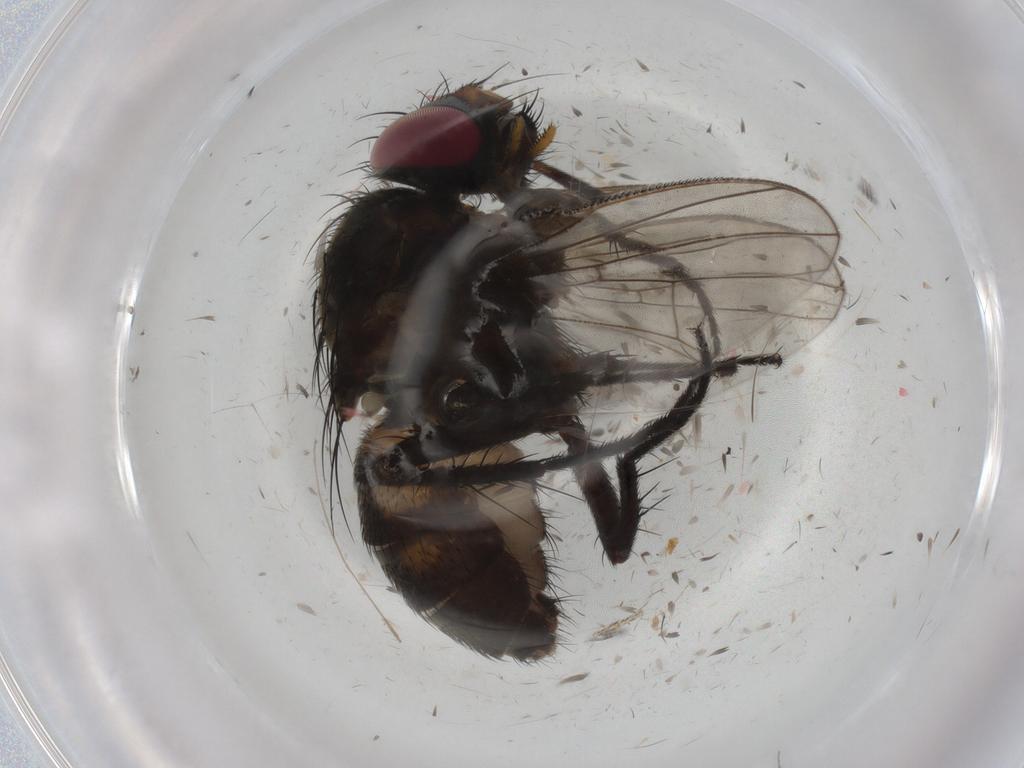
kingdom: Animalia
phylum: Arthropoda
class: Insecta
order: Diptera
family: Fannia
